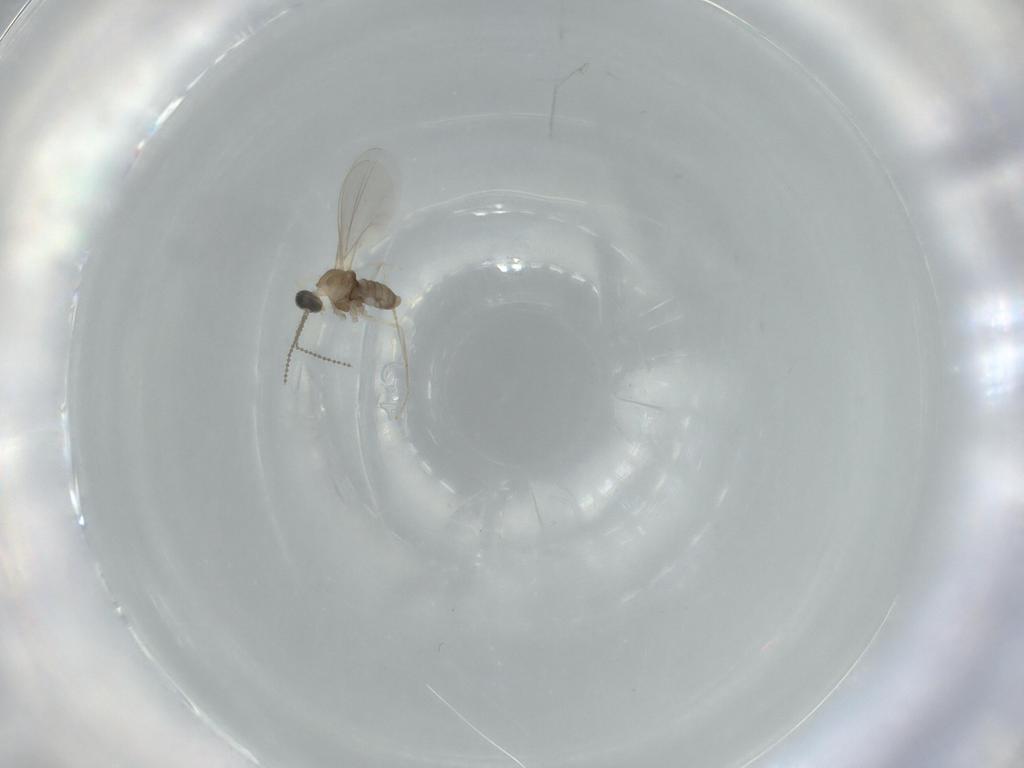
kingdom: Animalia
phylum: Arthropoda
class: Insecta
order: Diptera
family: Cecidomyiidae
